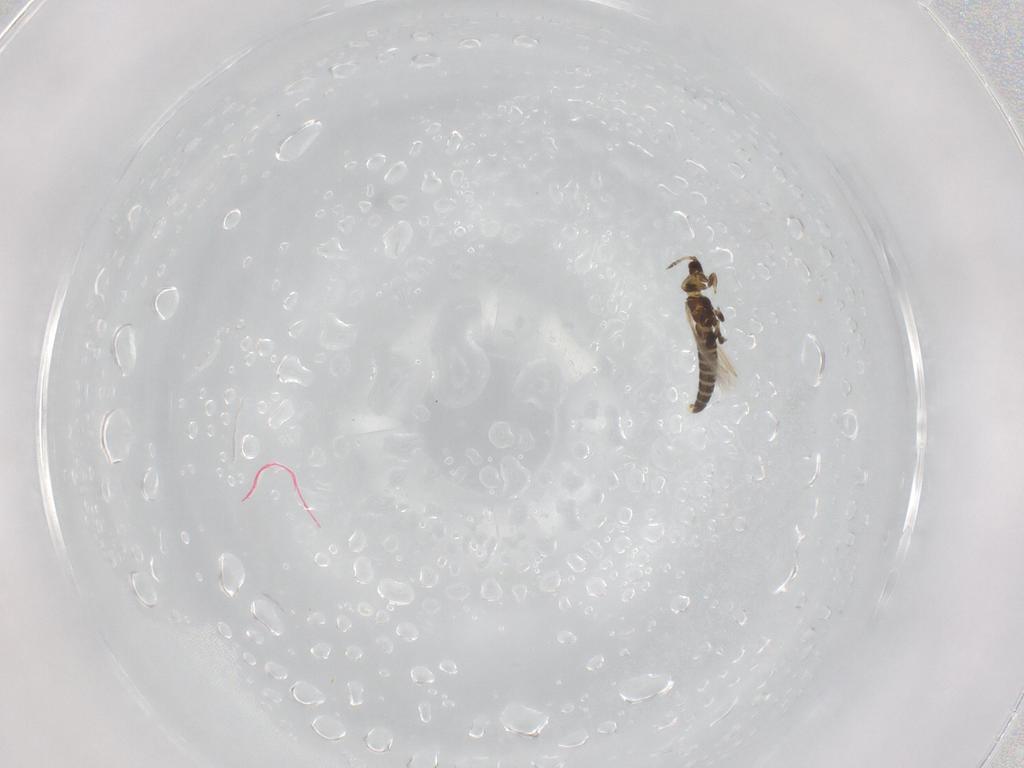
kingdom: Animalia
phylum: Arthropoda
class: Insecta
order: Thysanoptera
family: Thripidae
